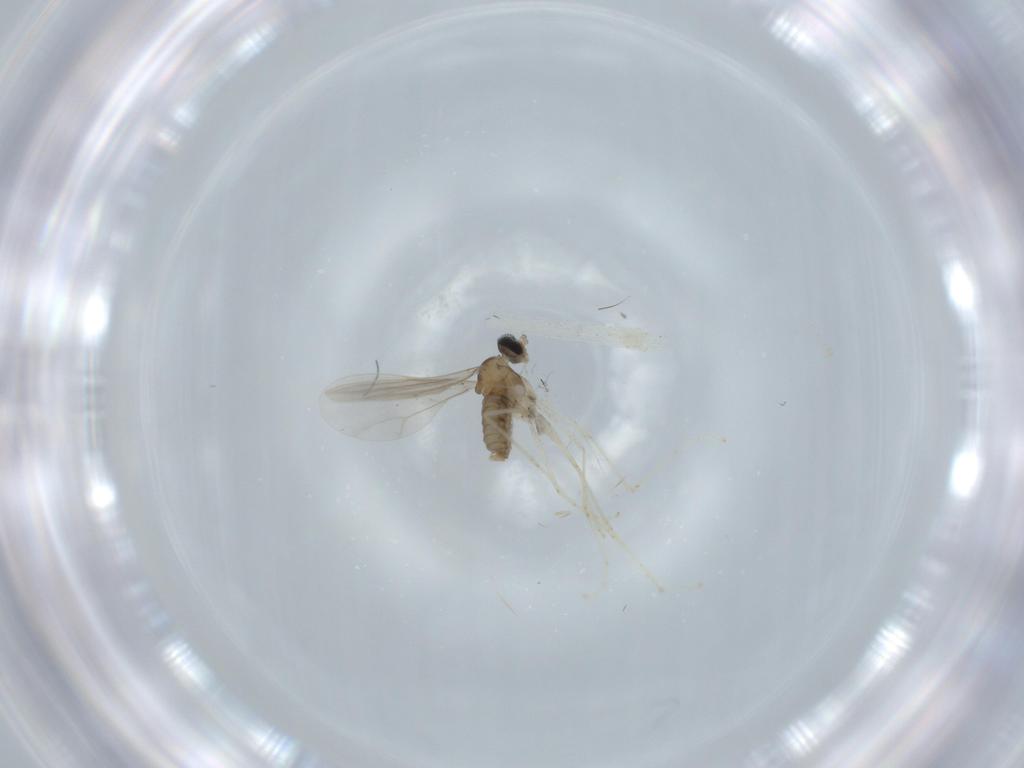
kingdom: Animalia
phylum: Arthropoda
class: Insecta
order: Diptera
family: Cecidomyiidae
